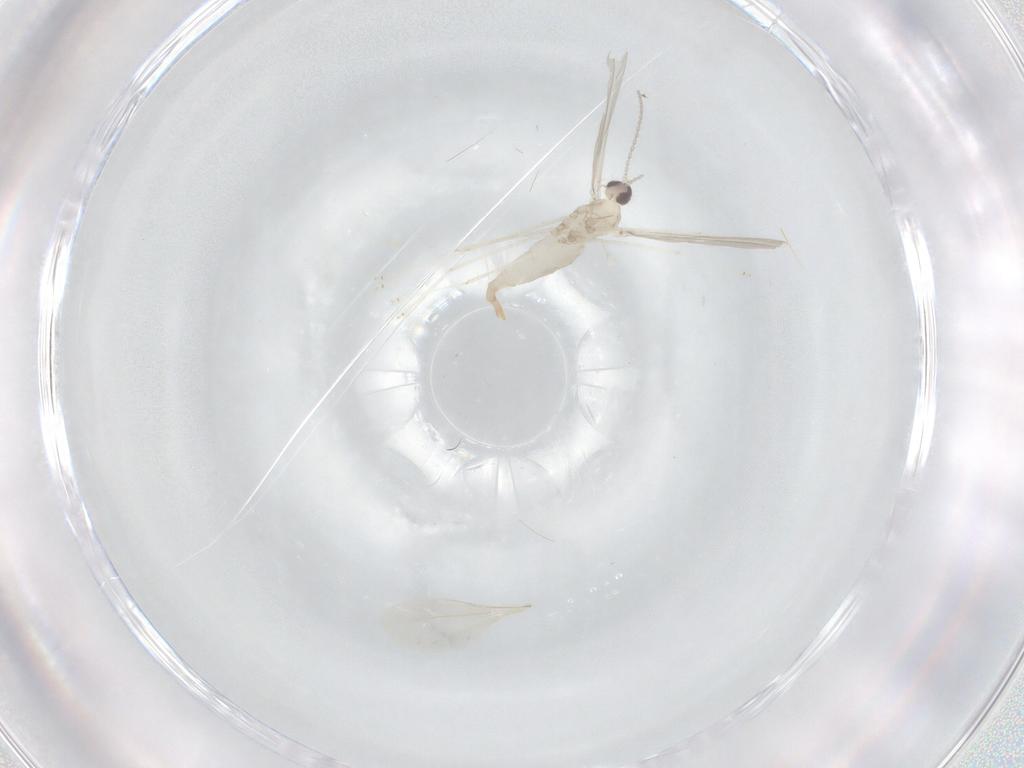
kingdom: Animalia
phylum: Arthropoda
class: Insecta
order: Diptera
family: Cecidomyiidae
